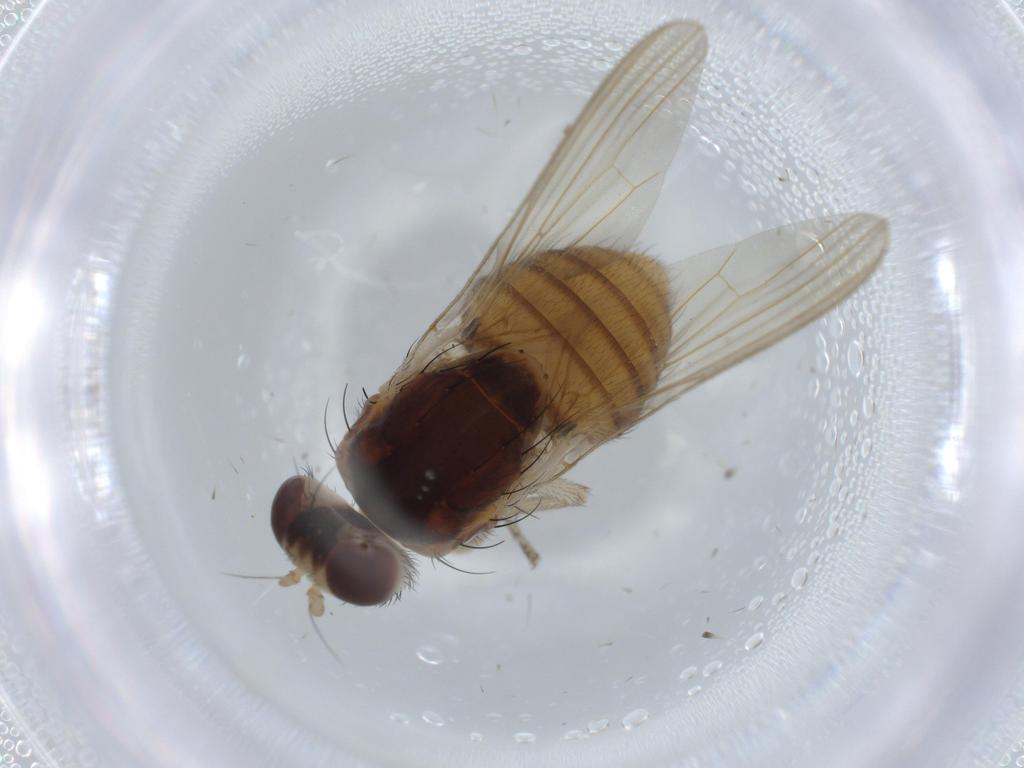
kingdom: Animalia
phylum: Arthropoda
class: Insecta
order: Diptera
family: Lauxaniidae
